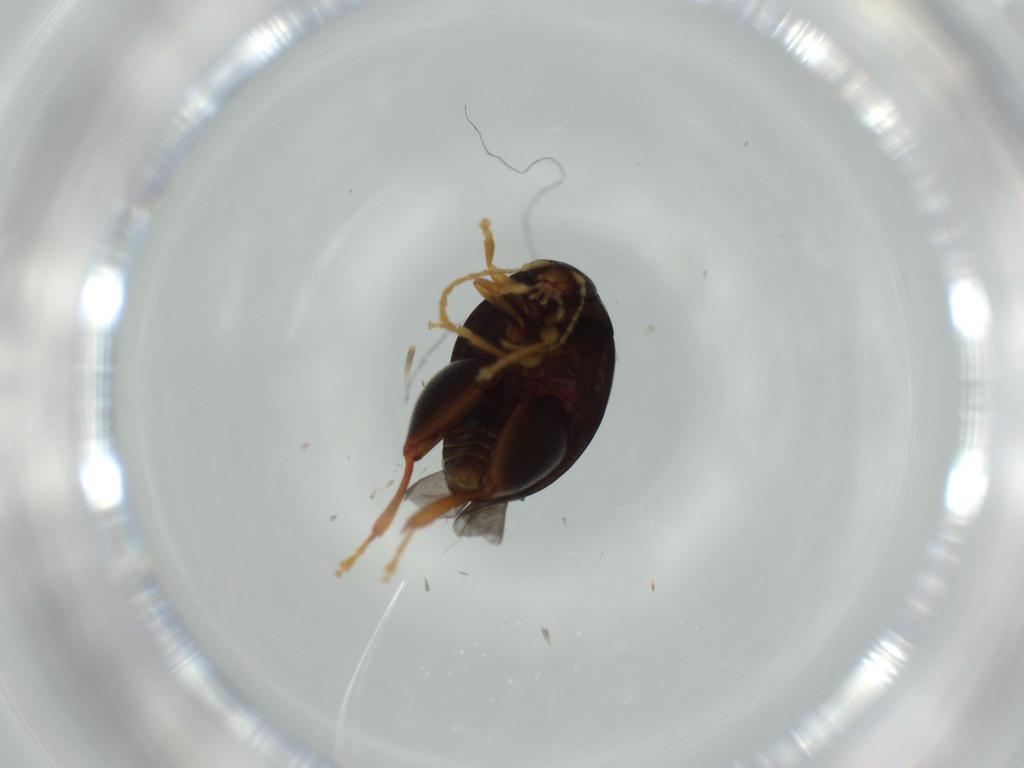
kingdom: Animalia
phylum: Arthropoda
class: Insecta
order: Coleoptera
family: Chrysomelidae
